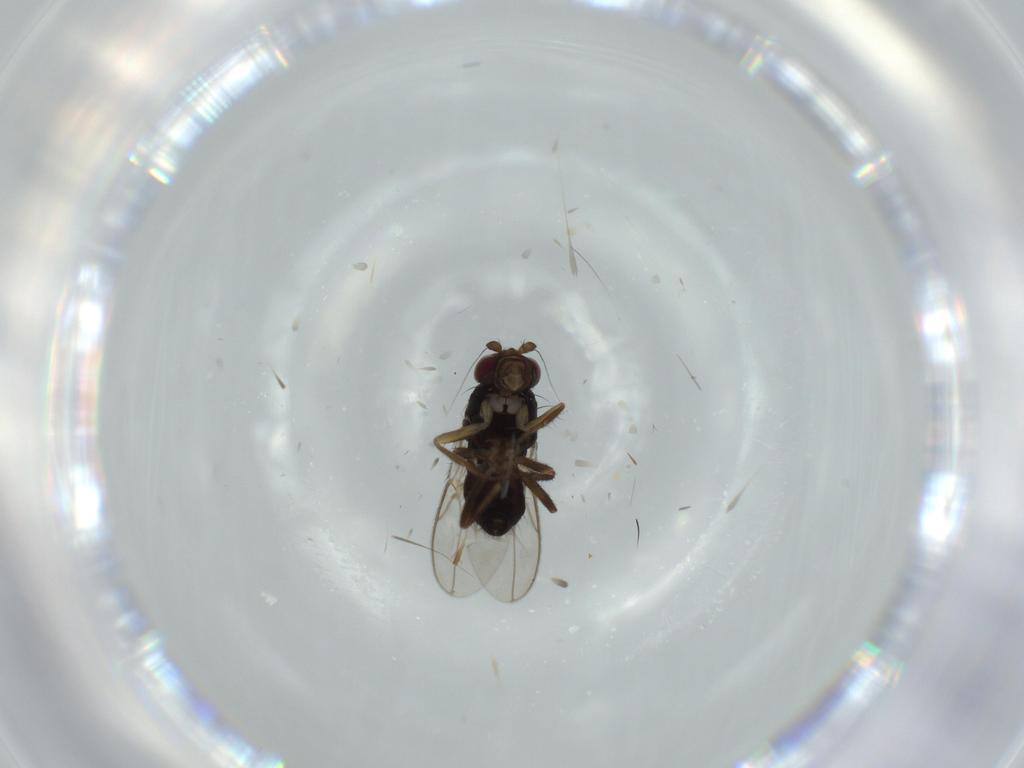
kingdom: Animalia
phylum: Arthropoda
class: Insecta
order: Diptera
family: Sphaeroceridae
